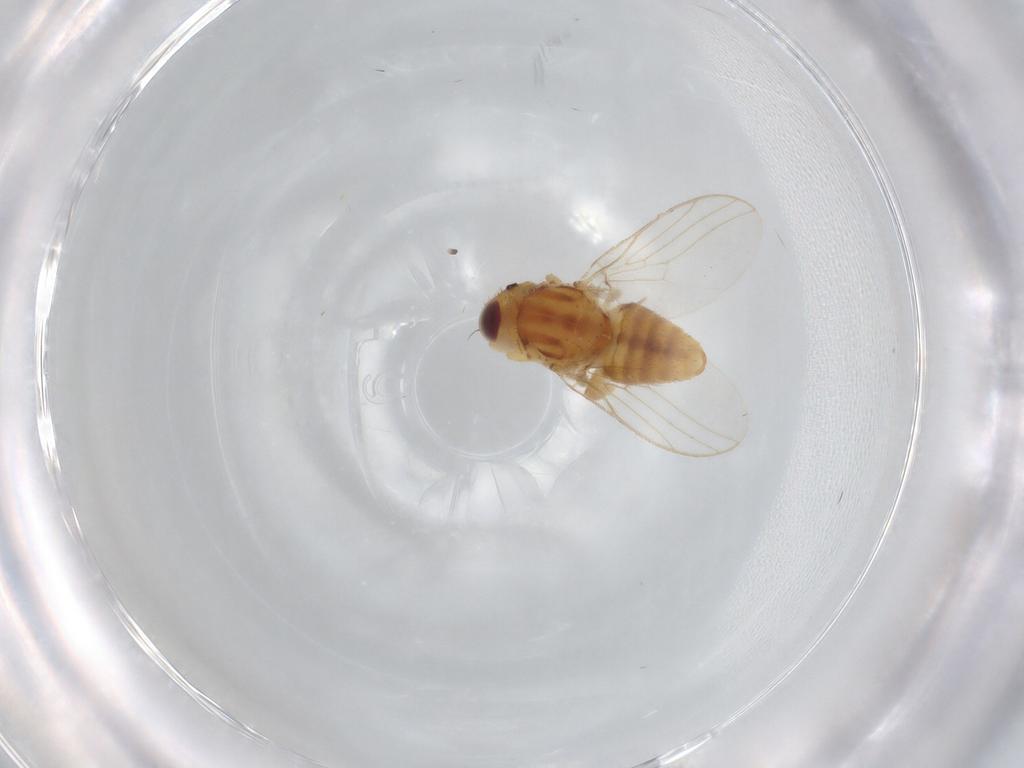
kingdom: Animalia
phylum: Arthropoda
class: Insecta
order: Diptera
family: Chloropidae
